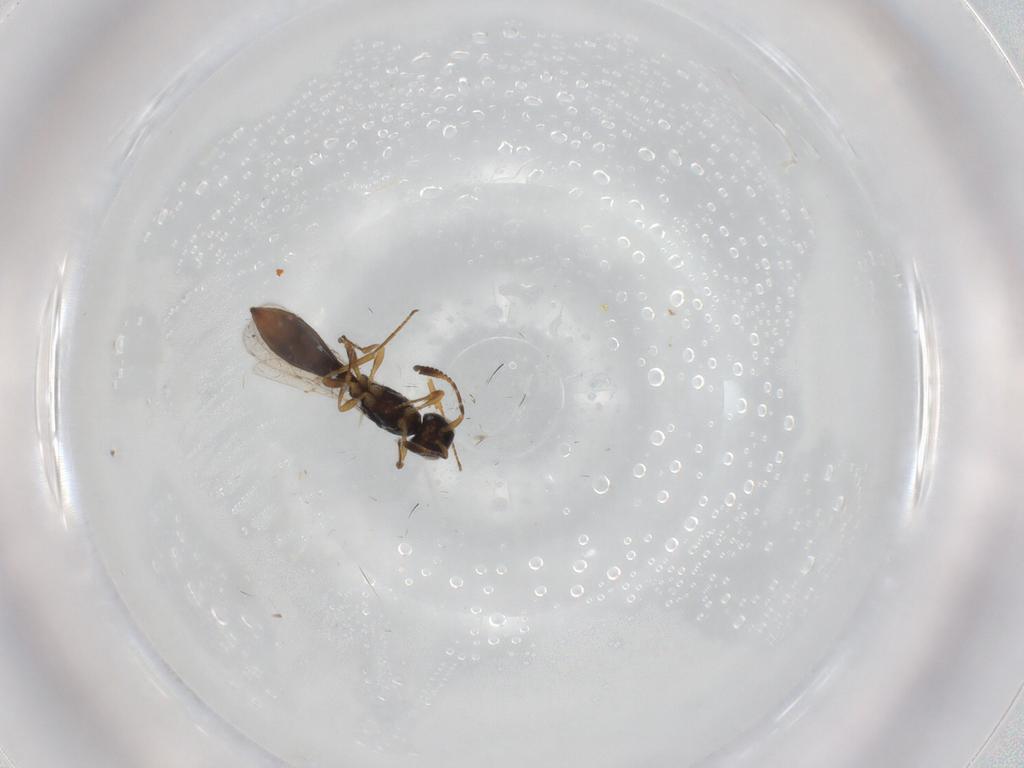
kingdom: Animalia
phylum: Arthropoda
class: Insecta
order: Hymenoptera
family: Scelionidae
